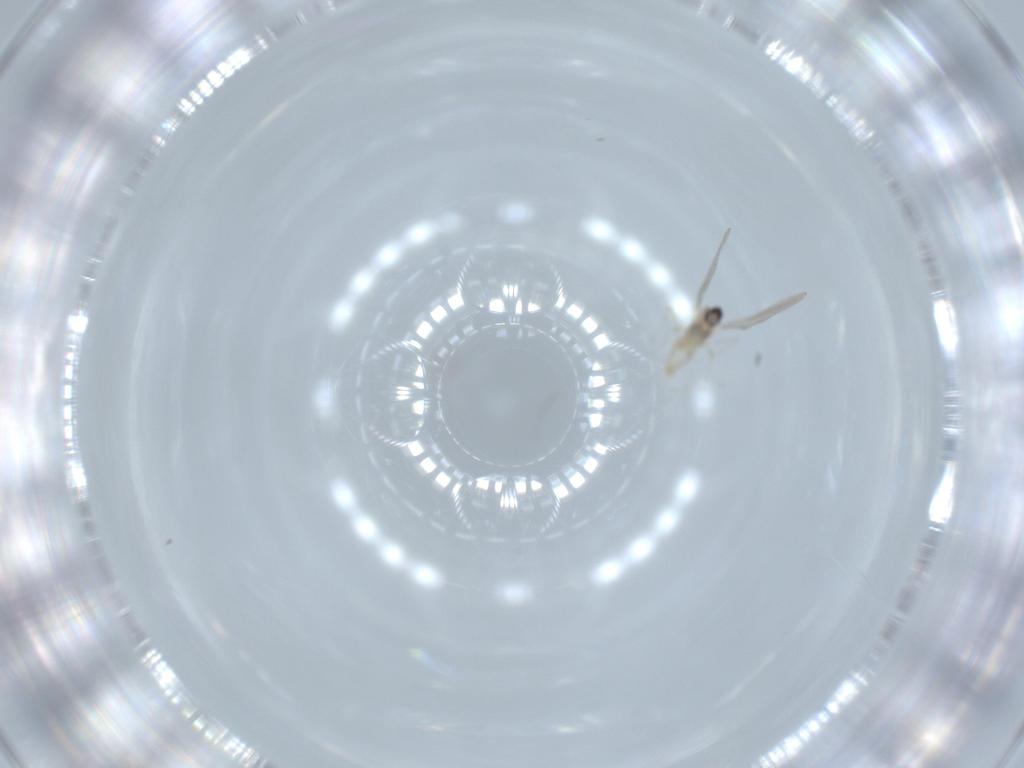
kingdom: Animalia
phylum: Arthropoda
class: Insecta
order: Diptera
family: Cecidomyiidae
